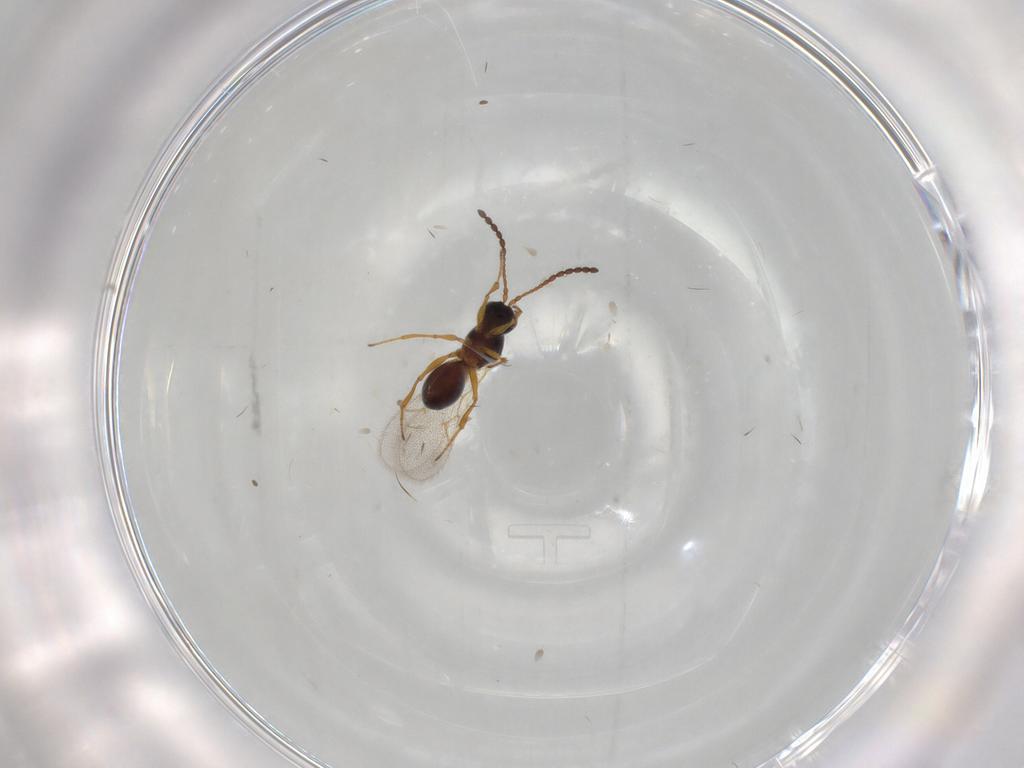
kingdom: Animalia
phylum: Arthropoda
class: Insecta
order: Hymenoptera
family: Figitidae
